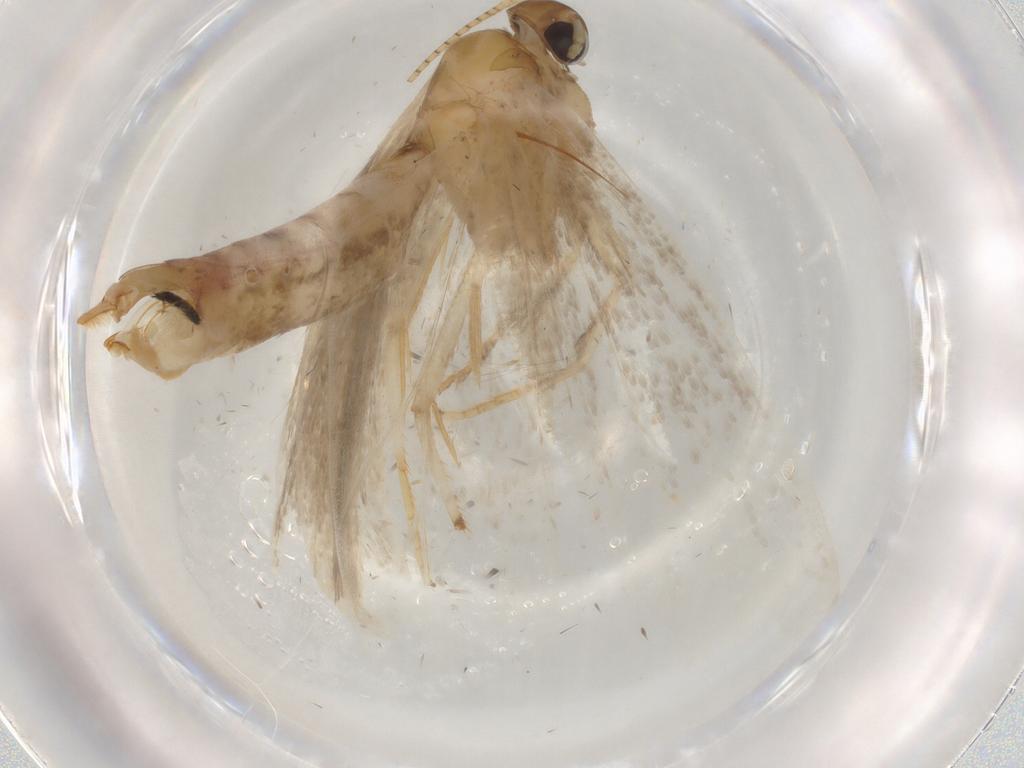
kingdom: Animalia
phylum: Arthropoda
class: Insecta
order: Lepidoptera
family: Gelechiidae
